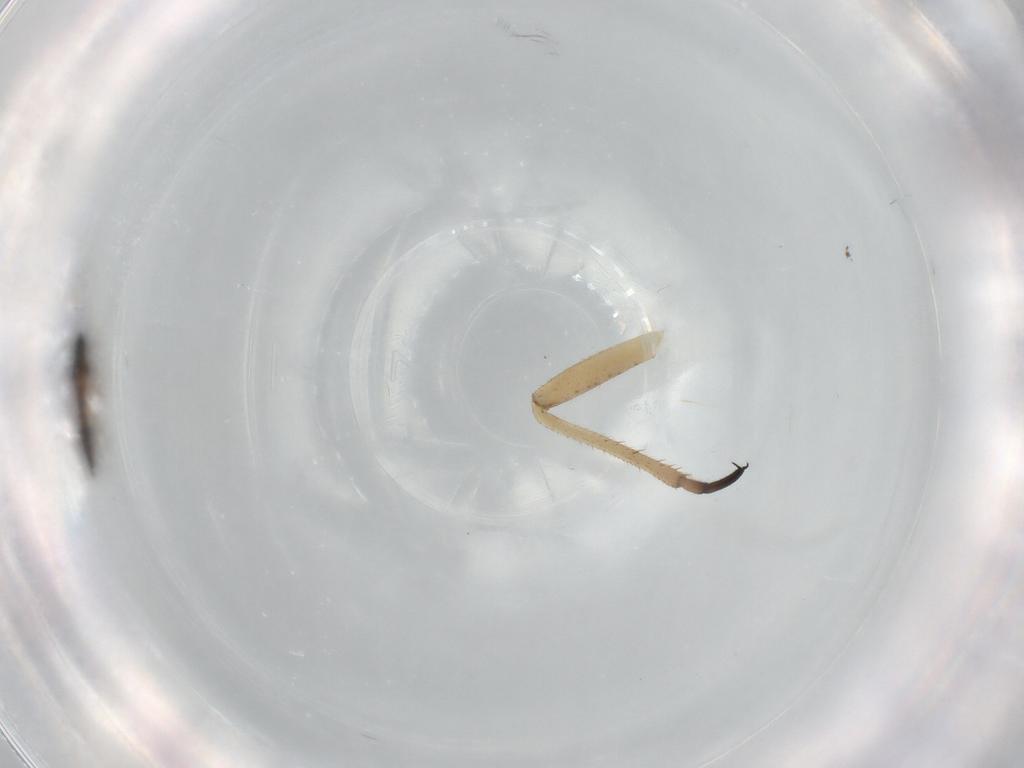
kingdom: Animalia
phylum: Arthropoda
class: Insecta
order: Diptera
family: Sciaridae
